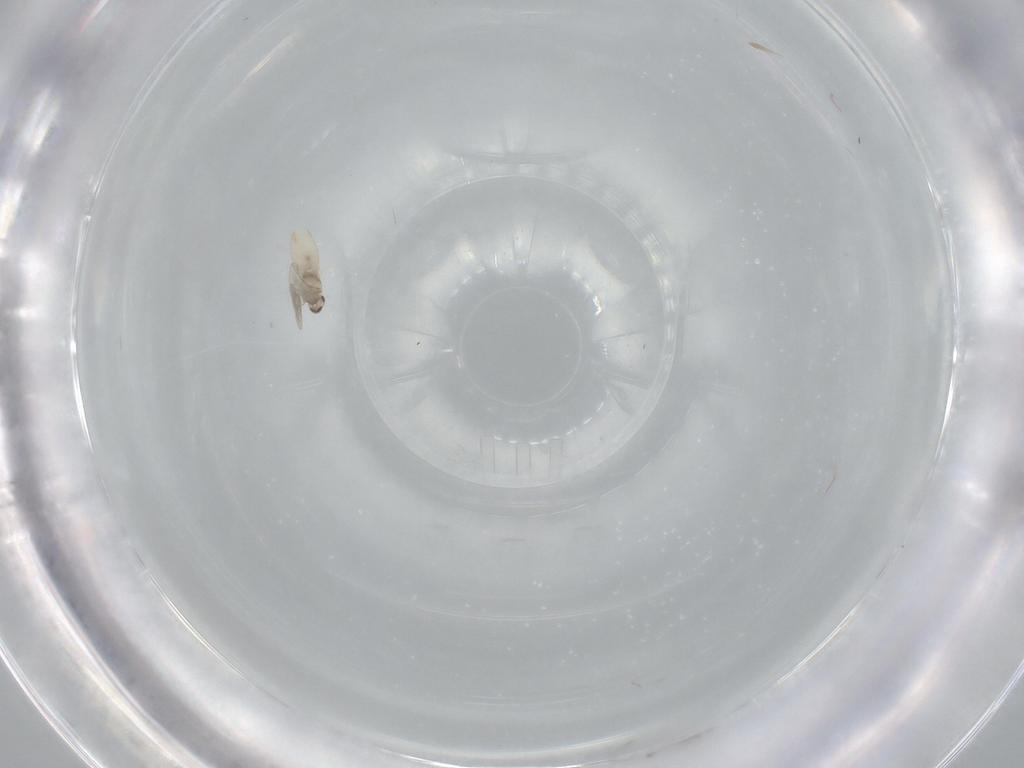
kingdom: Animalia
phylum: Arthropoda
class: Insecta
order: Diptera
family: Cecidomyiidae
